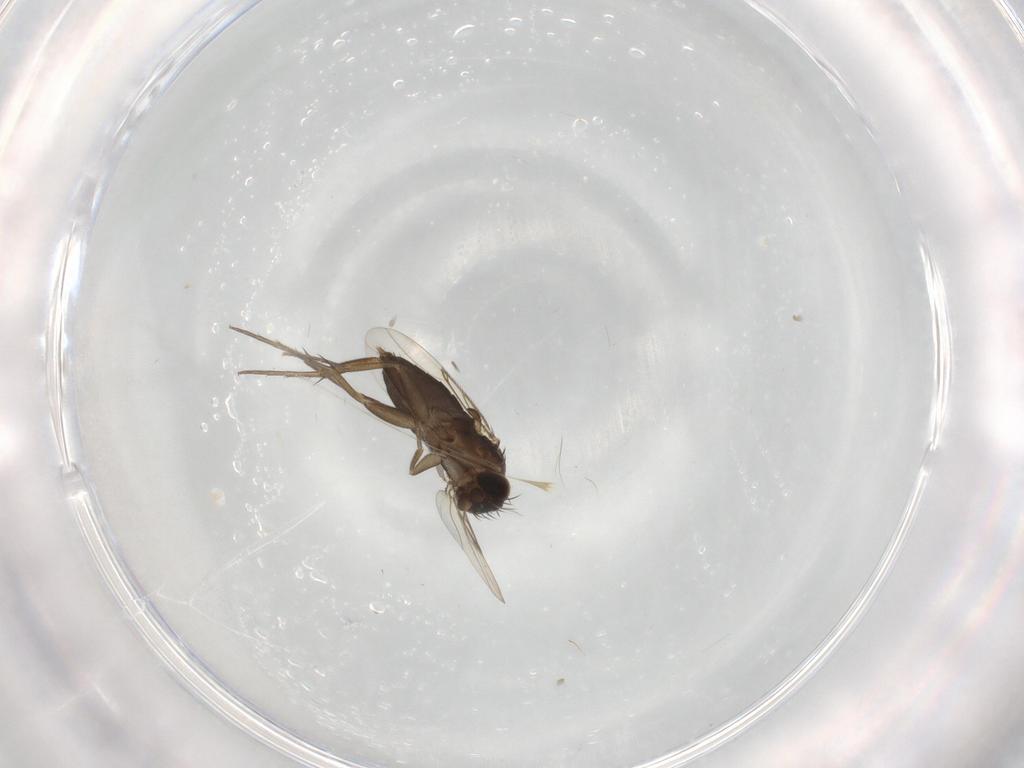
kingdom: Animalia
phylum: Arthropoda
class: Insecta
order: Diptera
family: Phoridae
